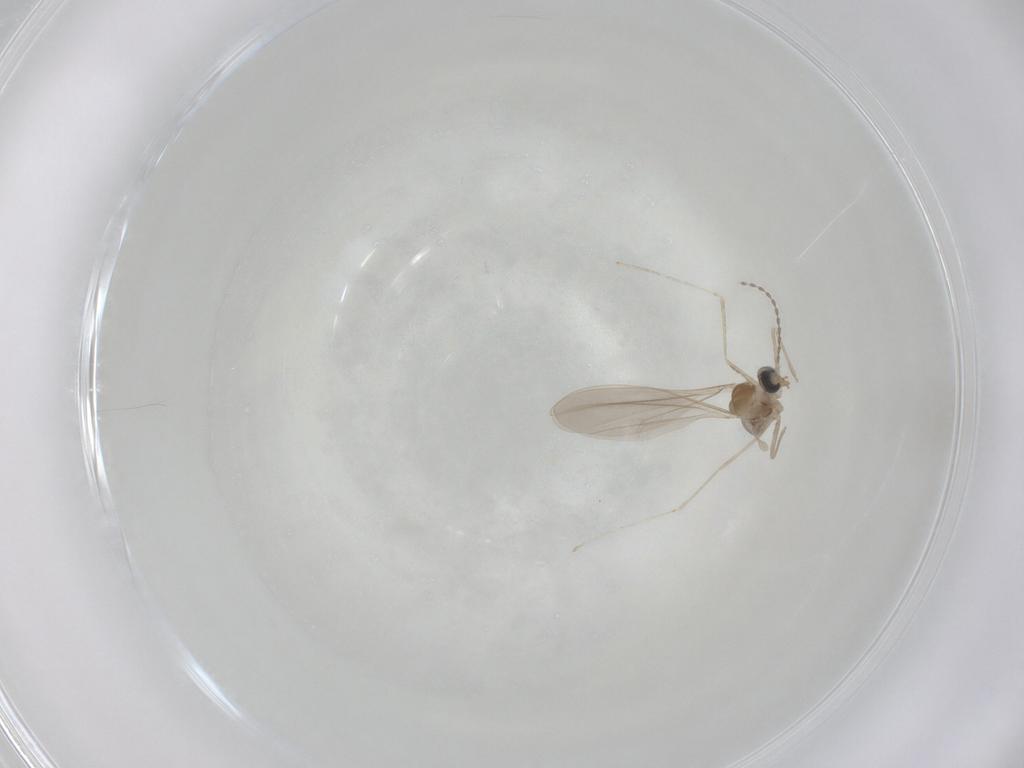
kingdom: Animalia
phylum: Arthropoda
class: Insecta
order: Diptera
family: Cecidomyiidae
